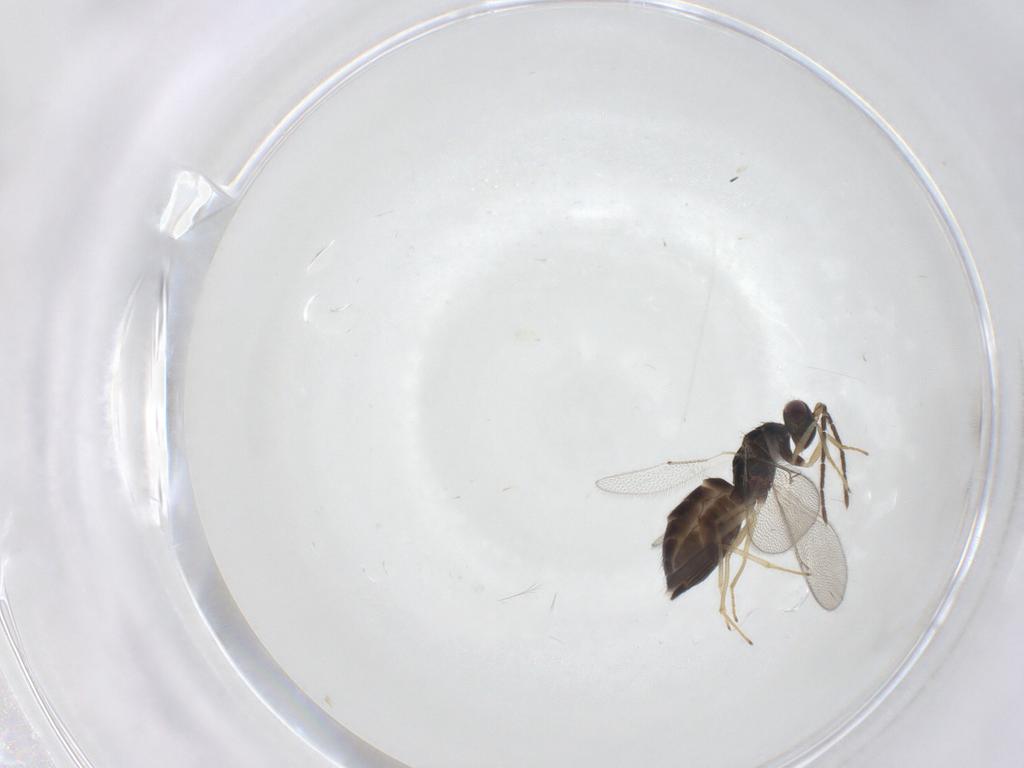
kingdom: Animalia
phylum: Arthropoda
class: Insecta
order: Hymenoptera
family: Eulophidae
